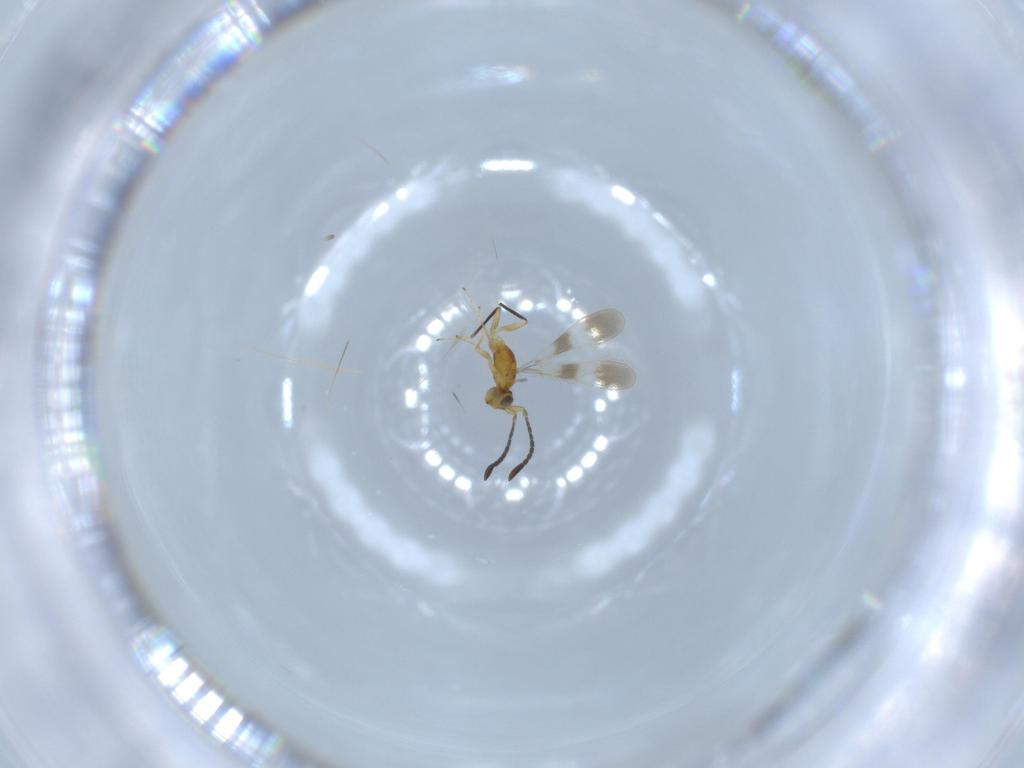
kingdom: Animalia
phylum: Arthropoda
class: Insecta
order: Hymenoptera
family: Mymaridae
